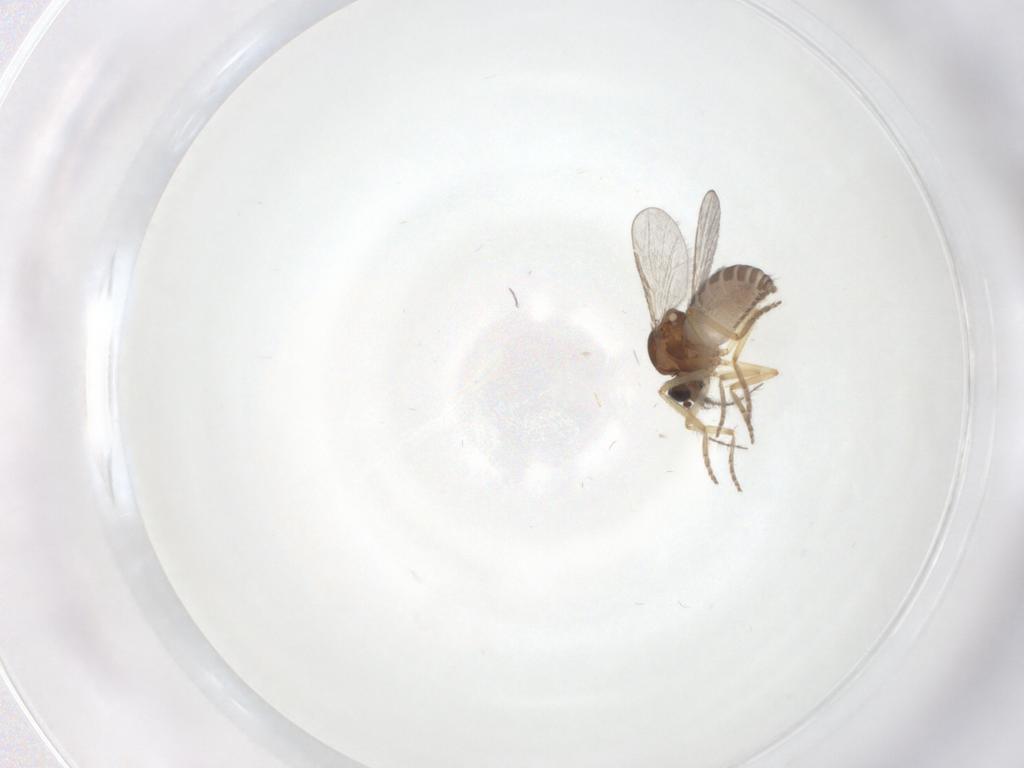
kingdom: Animalia
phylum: Arthropoda
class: Insecta
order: Diptera
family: Ceratopogonidae
